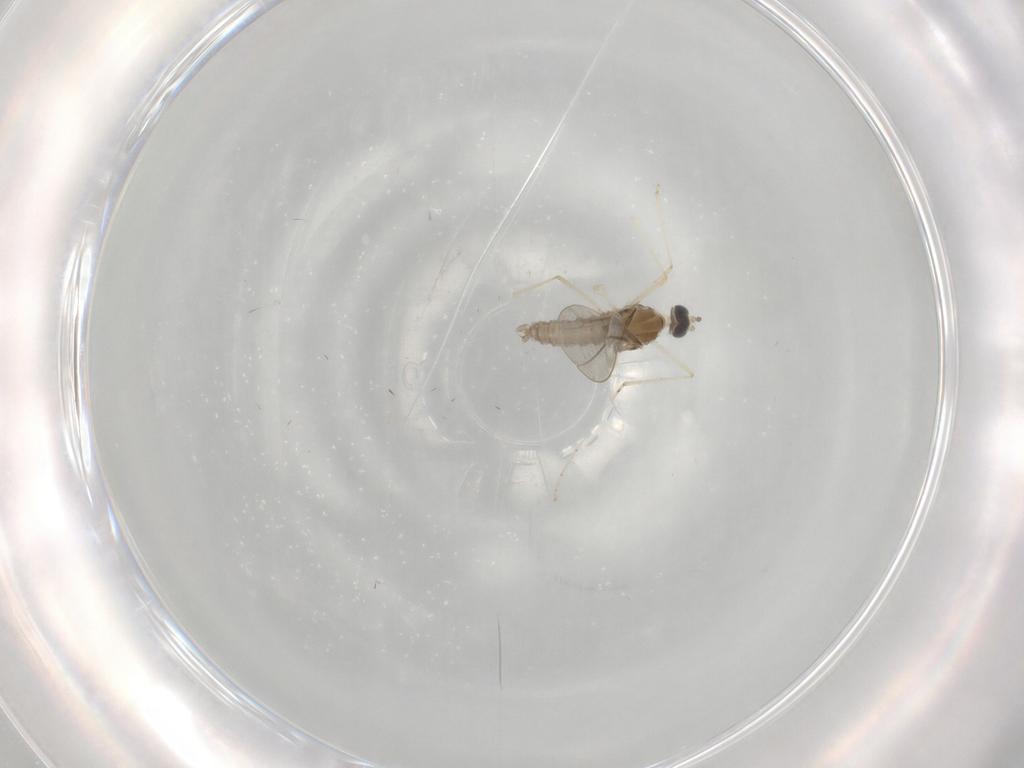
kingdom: Animalia
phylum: Arthropoda
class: Insecta
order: Diptera
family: Cecidomyiidae
